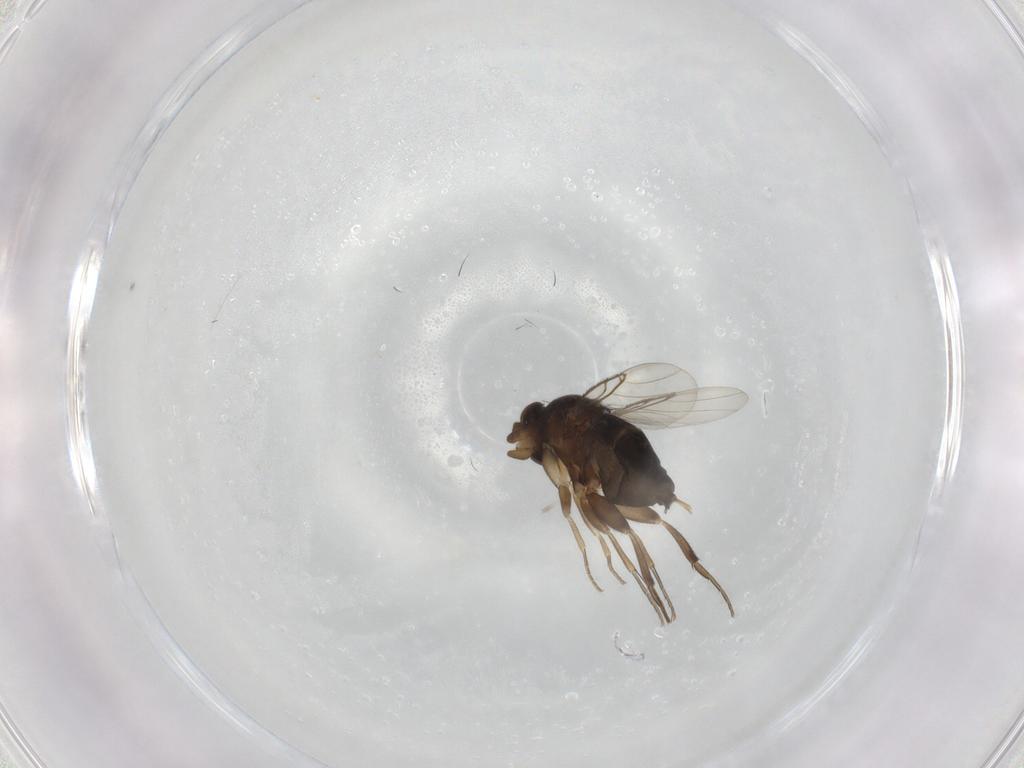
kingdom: Animalia
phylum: Arthropoda
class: Insecta
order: Diptera
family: Phoridae
